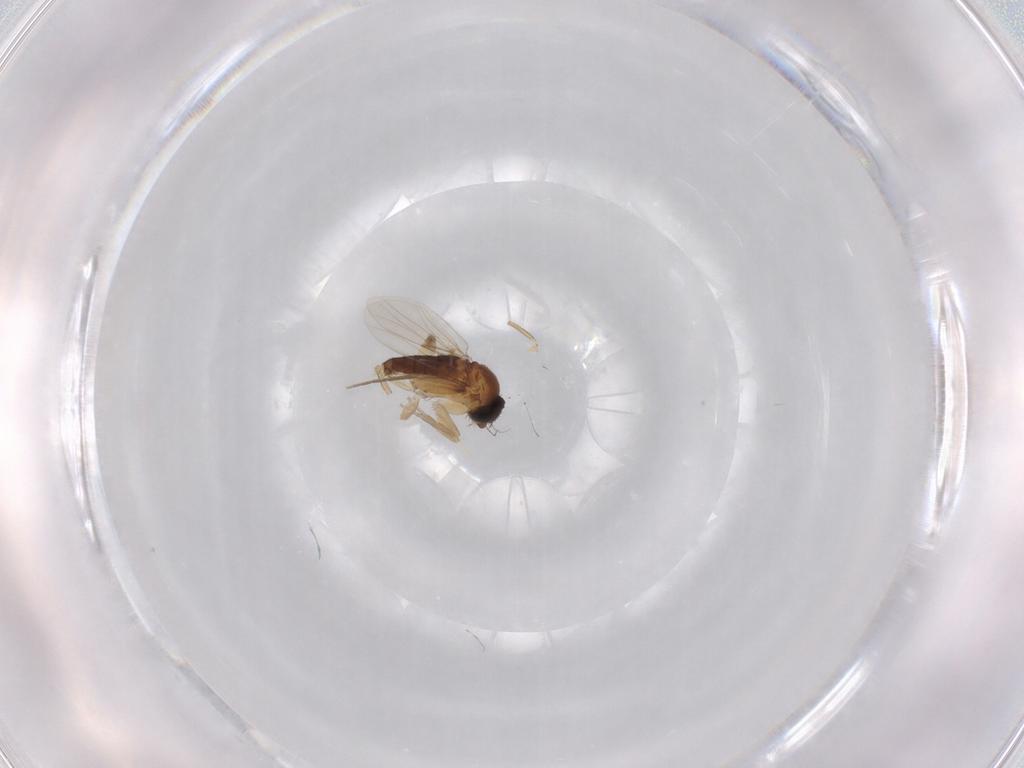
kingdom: Animalia
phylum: Arthropoda
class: Insecta
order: Diptera
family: Phoridae
